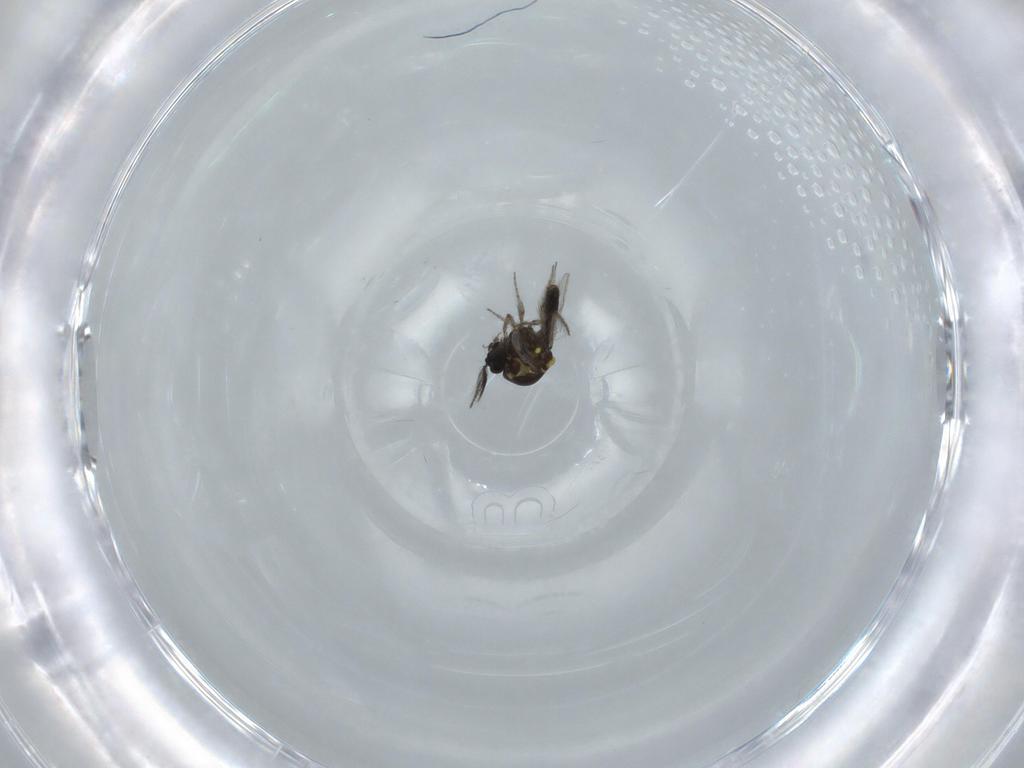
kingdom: Animalia
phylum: Arthropoda
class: Insecta
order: Diptera
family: Ceratopogonidae
